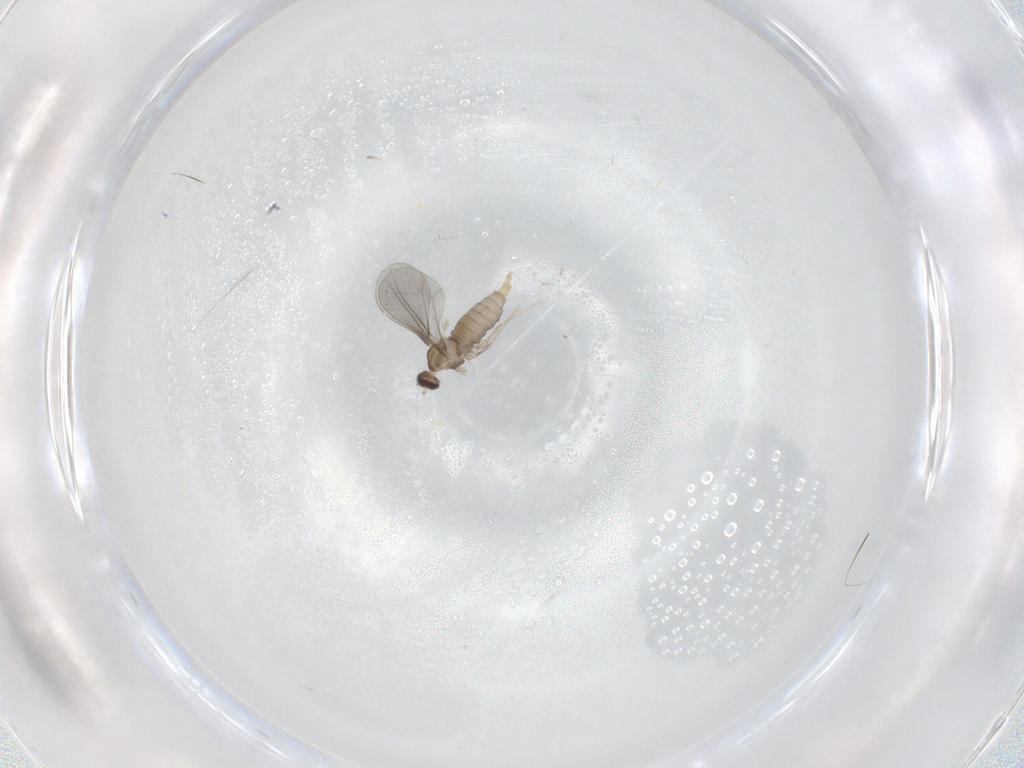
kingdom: Animalia
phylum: Arthropoda
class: Insecta
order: Diptera
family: Cecidomyiidae
